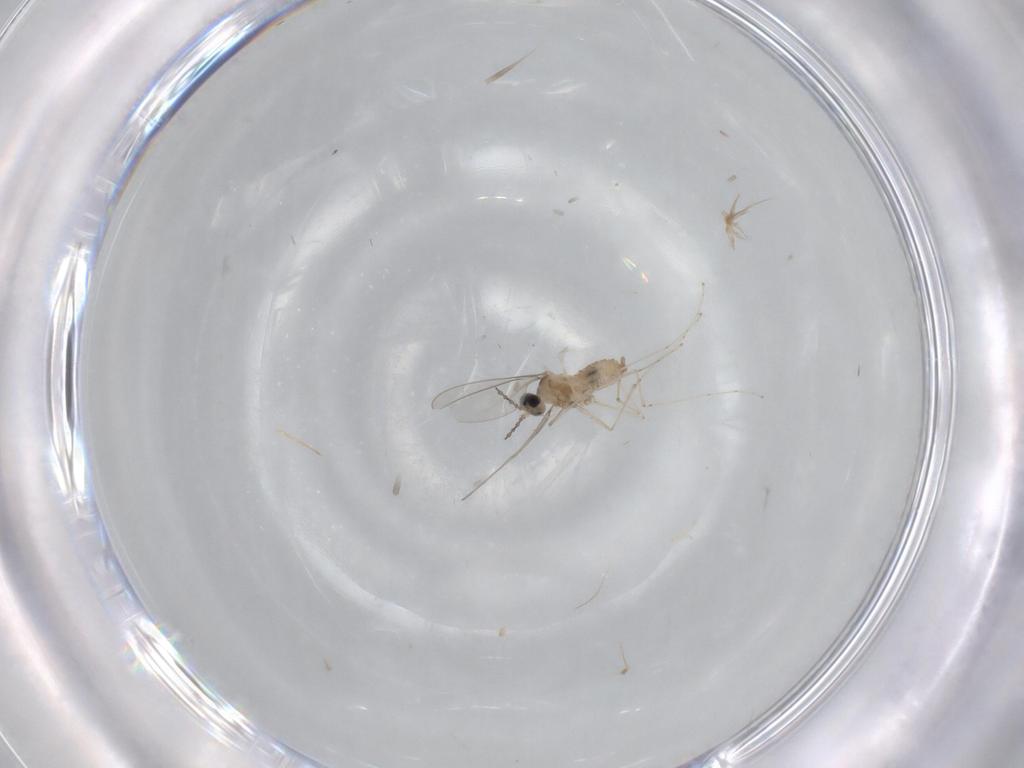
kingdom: Animalia
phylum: Arthropoda
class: Insecta
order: Diptera
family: Cecidomyiidae
